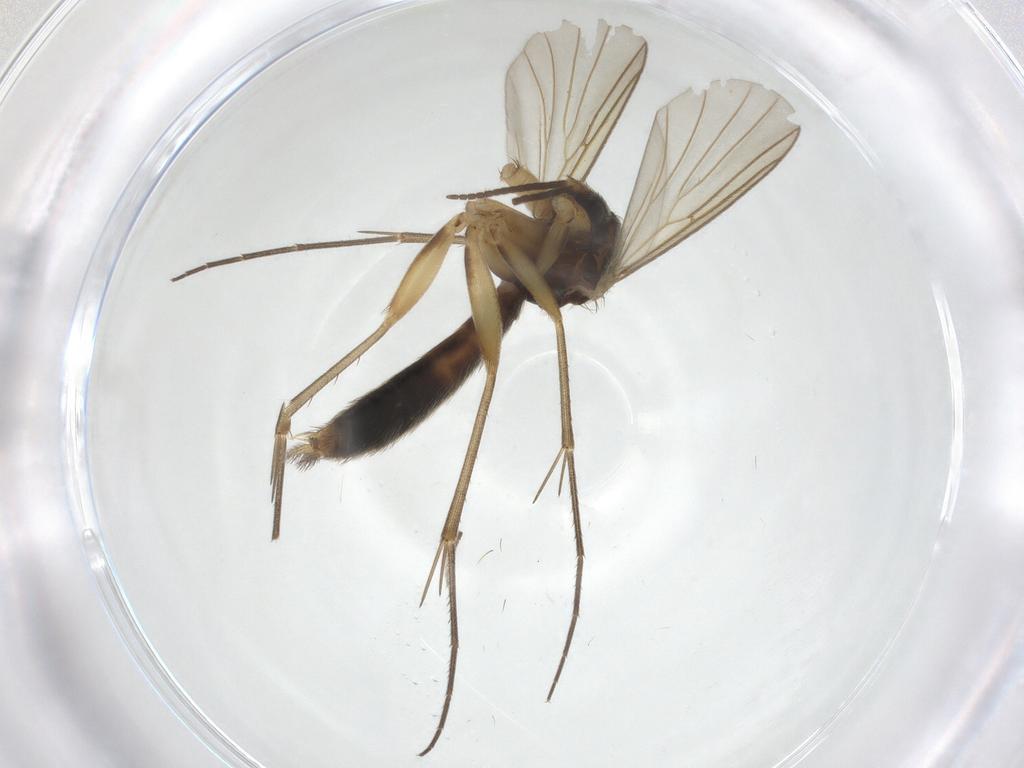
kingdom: Animalia
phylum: Arthropoda
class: Insecta
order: Diptera
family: Mycetophilidae
